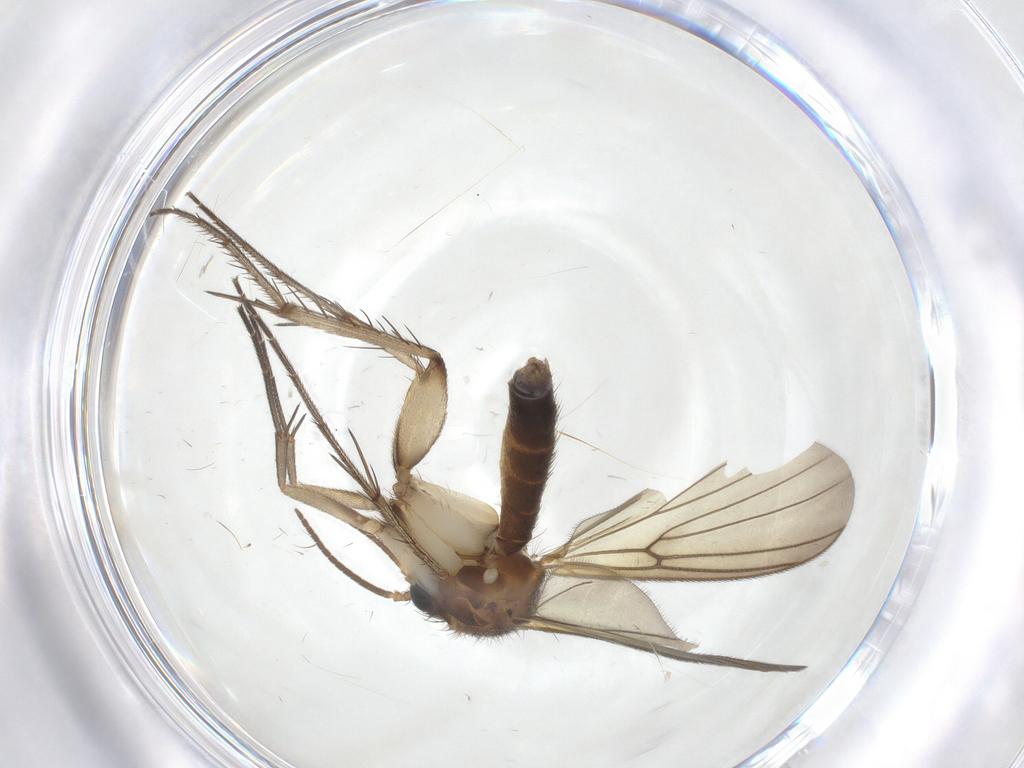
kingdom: Animalia
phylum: Arthropoda
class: Insecta
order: Diptera
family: Mycetophilidae
